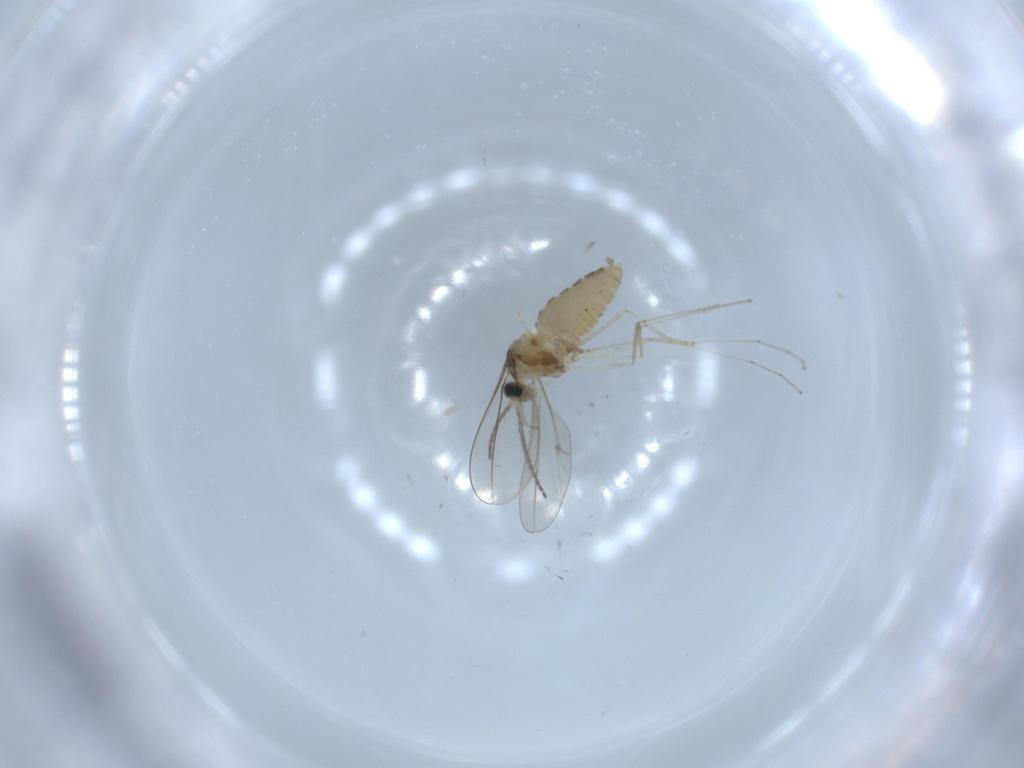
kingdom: Animalia
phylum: Arthropoda
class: Insecta
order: Diptera
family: Cecidomyiidae
